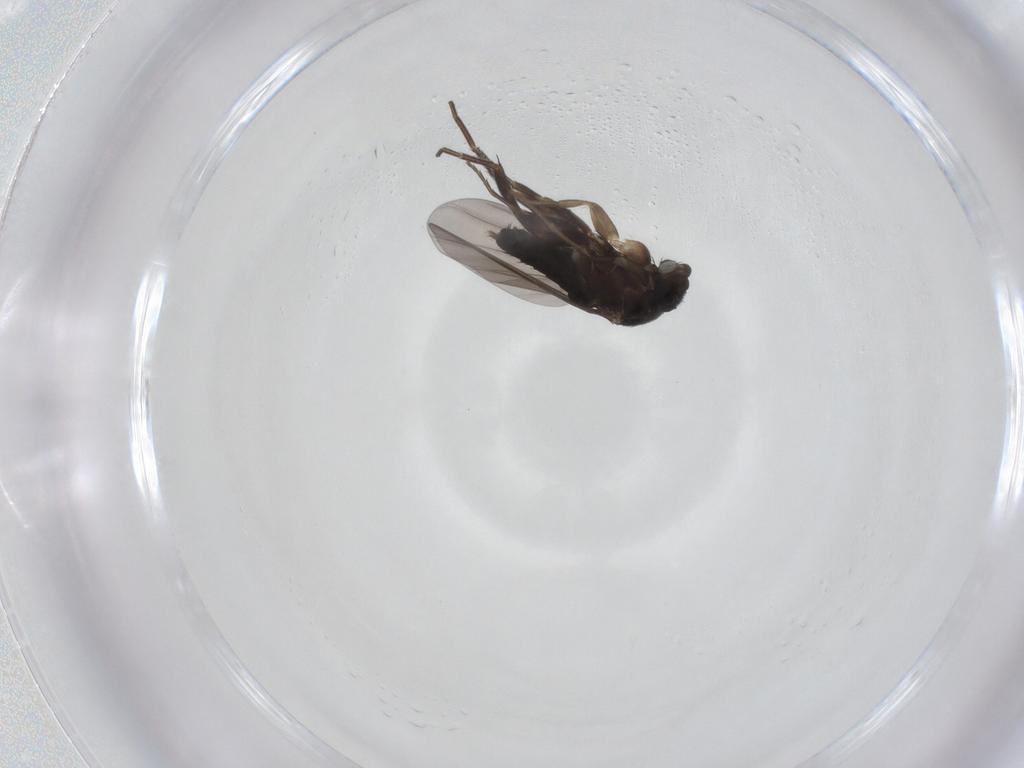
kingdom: Animalia
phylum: Arthropoda
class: Insecta
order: Diptera
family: Phoridae
